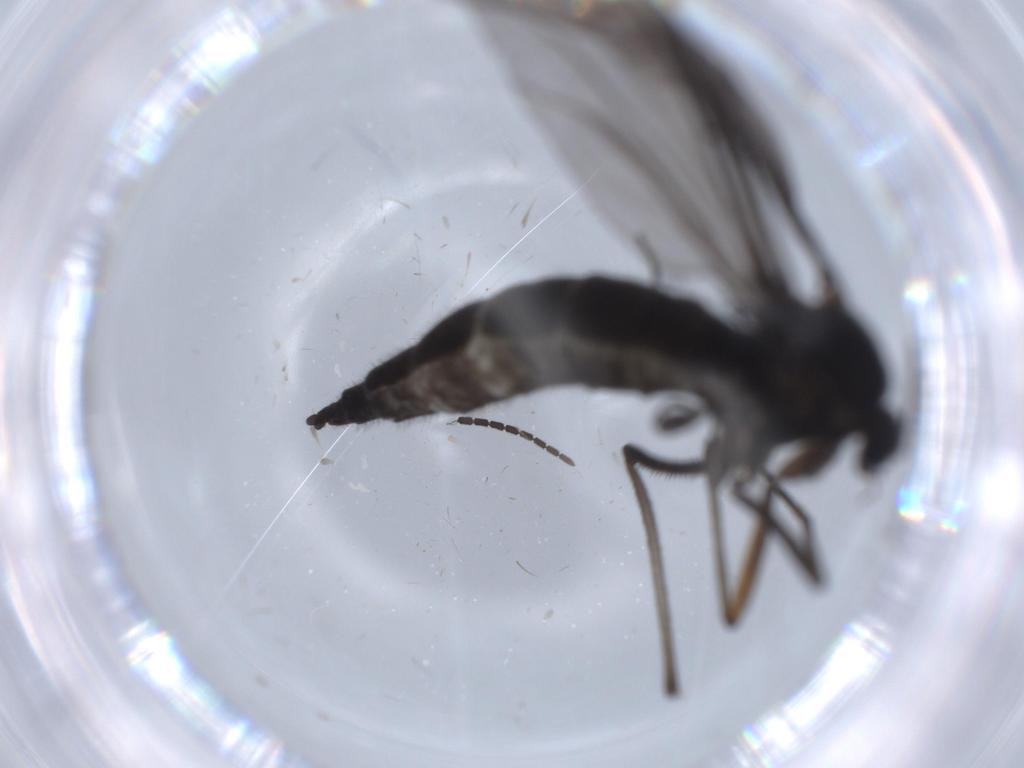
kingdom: Animalia
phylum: Arthropoda
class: Insecta
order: Diptera
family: Sciaridae
